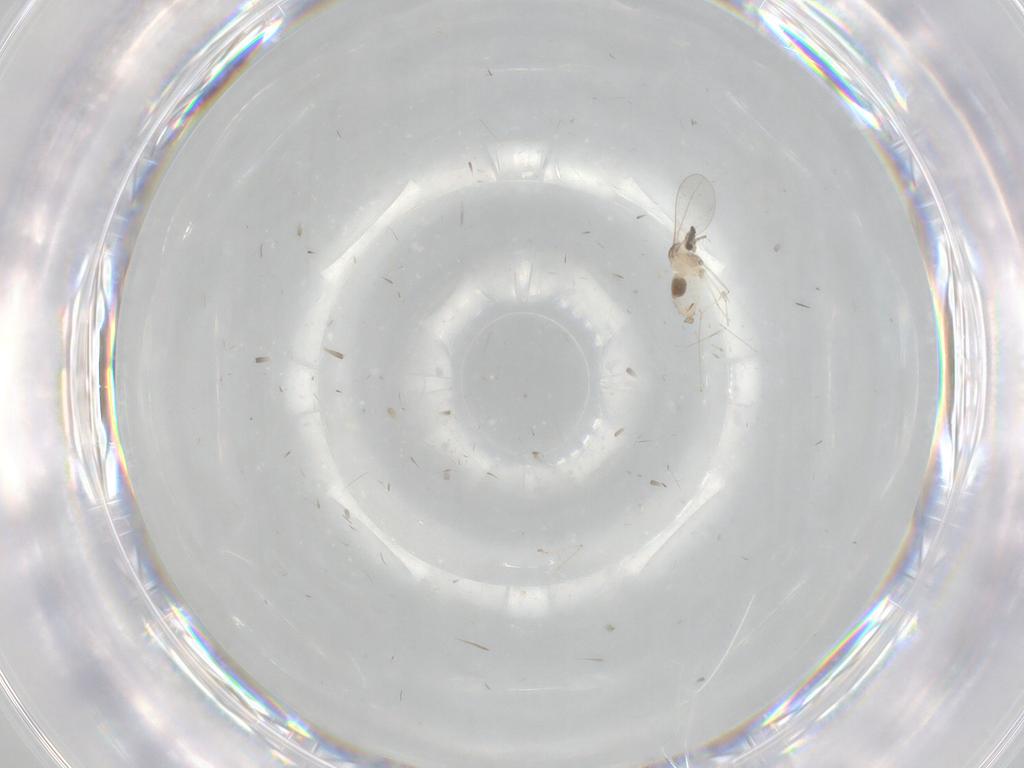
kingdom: Animalia
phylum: Arthropoda
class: Insecta
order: Diptera
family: Cecidomyiidae
